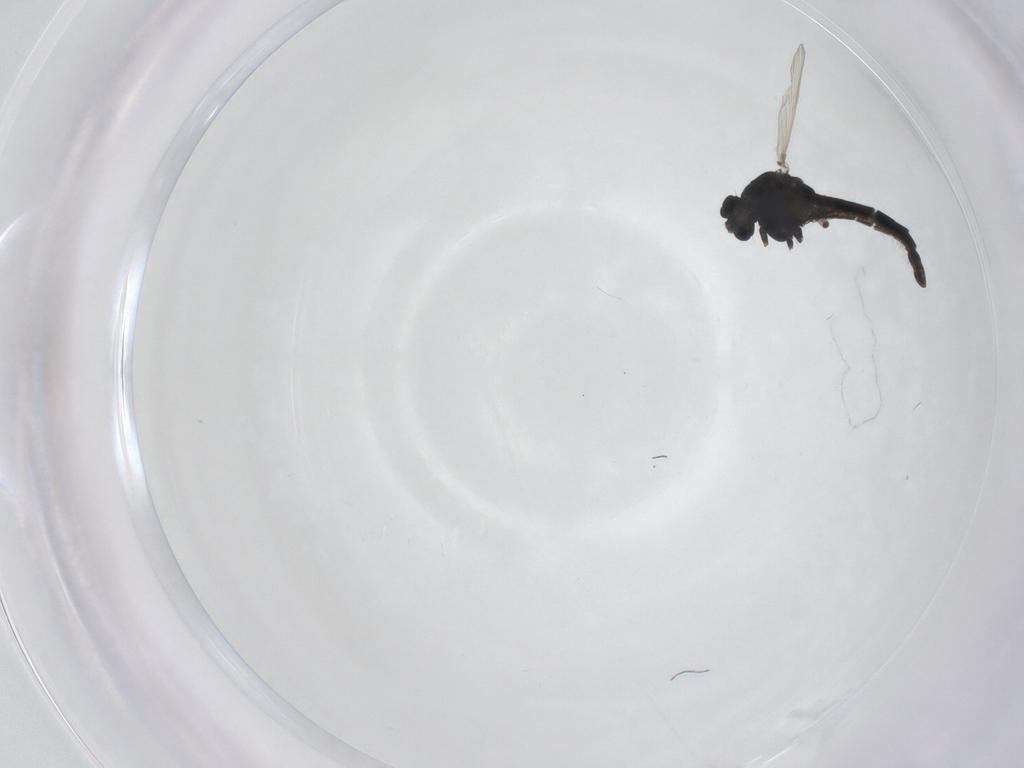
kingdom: Animalia
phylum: Arthropoda
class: Insecta
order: Diptera
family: Chironomidae
